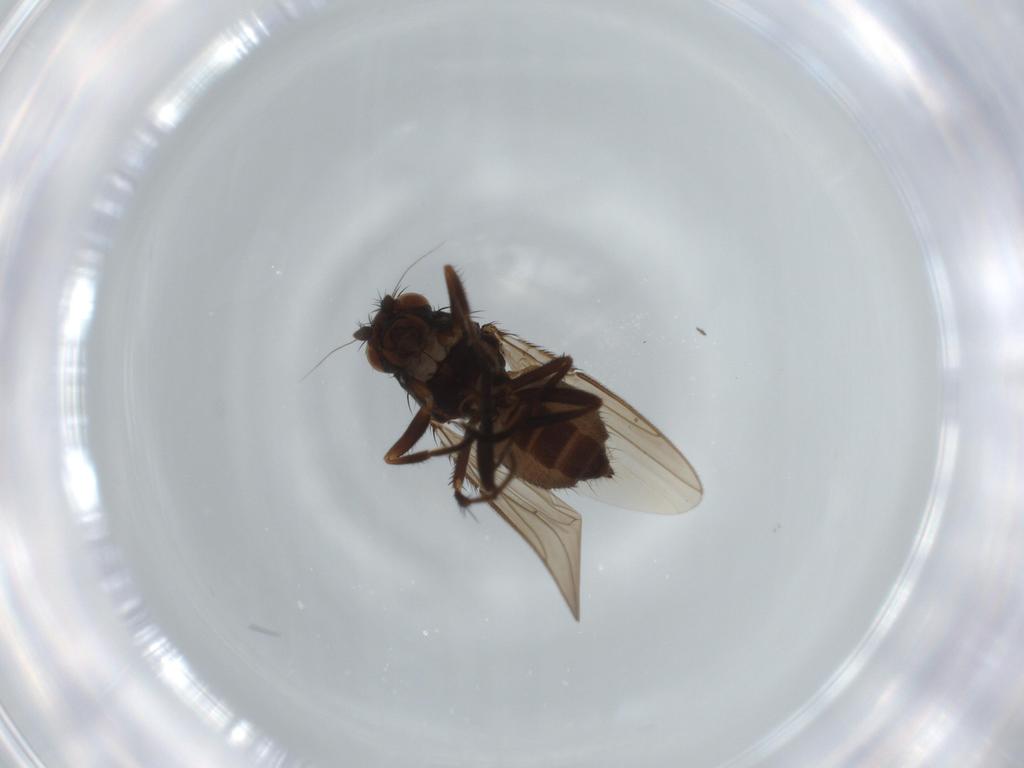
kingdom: Animalia
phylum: Arthropoda
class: Insecta
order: Diptera
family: Sphaeroceridae
